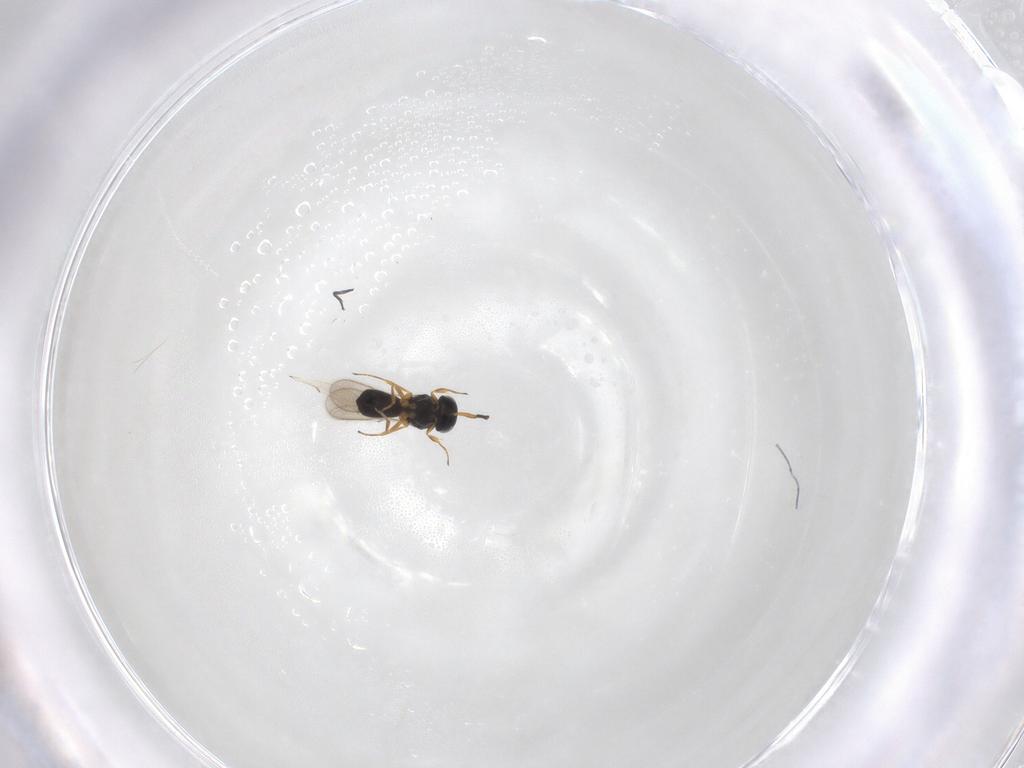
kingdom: Animalia
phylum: Arthropoda
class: Insecta
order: Hymenoptera
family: Scelionidae
